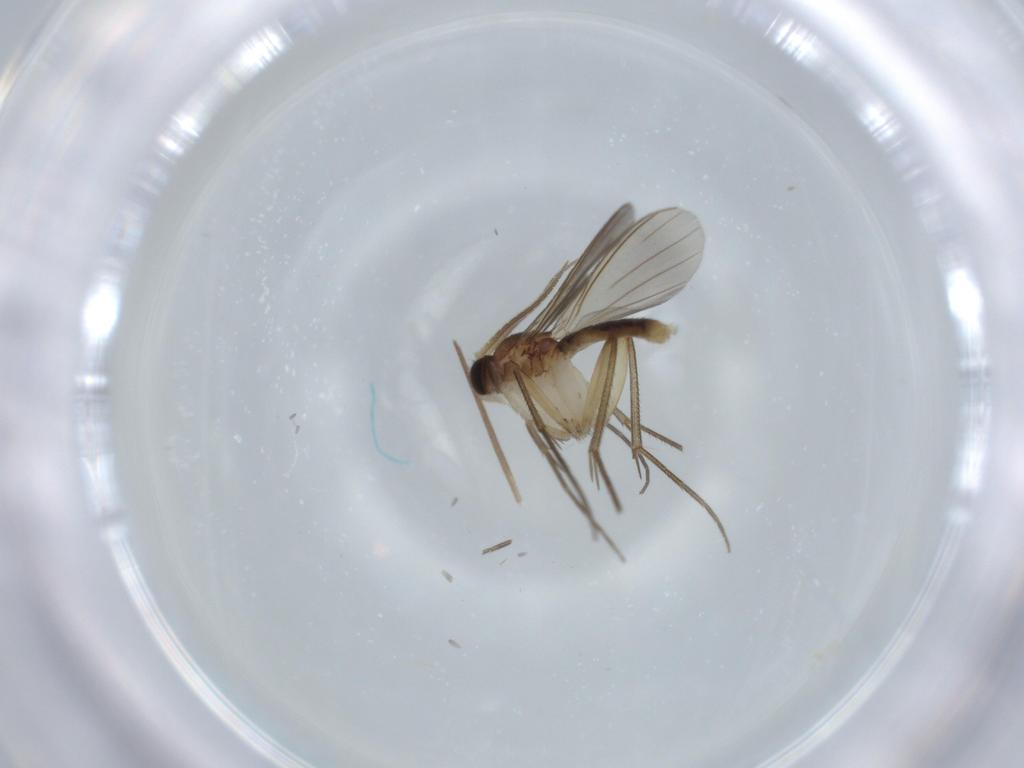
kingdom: Animalia
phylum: Arthropoda
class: Insecta
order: Diptera
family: Mycetophilidae
